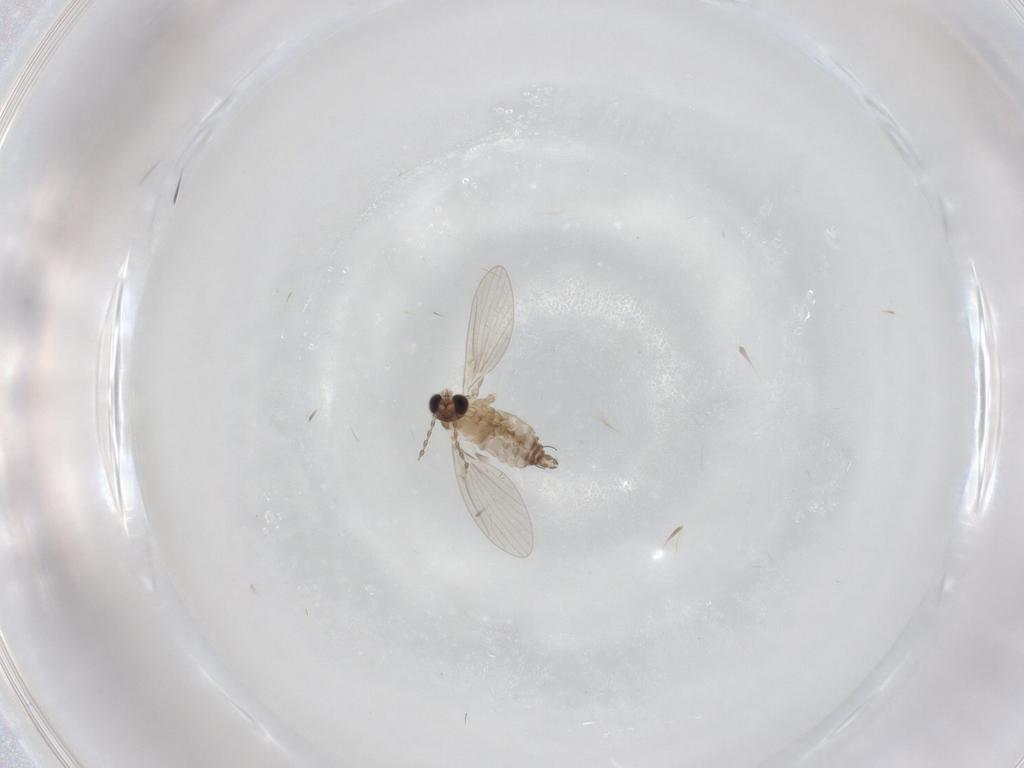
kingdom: Animalia
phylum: Arthropoda
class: Insecta
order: Diptera
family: Psychodidae
